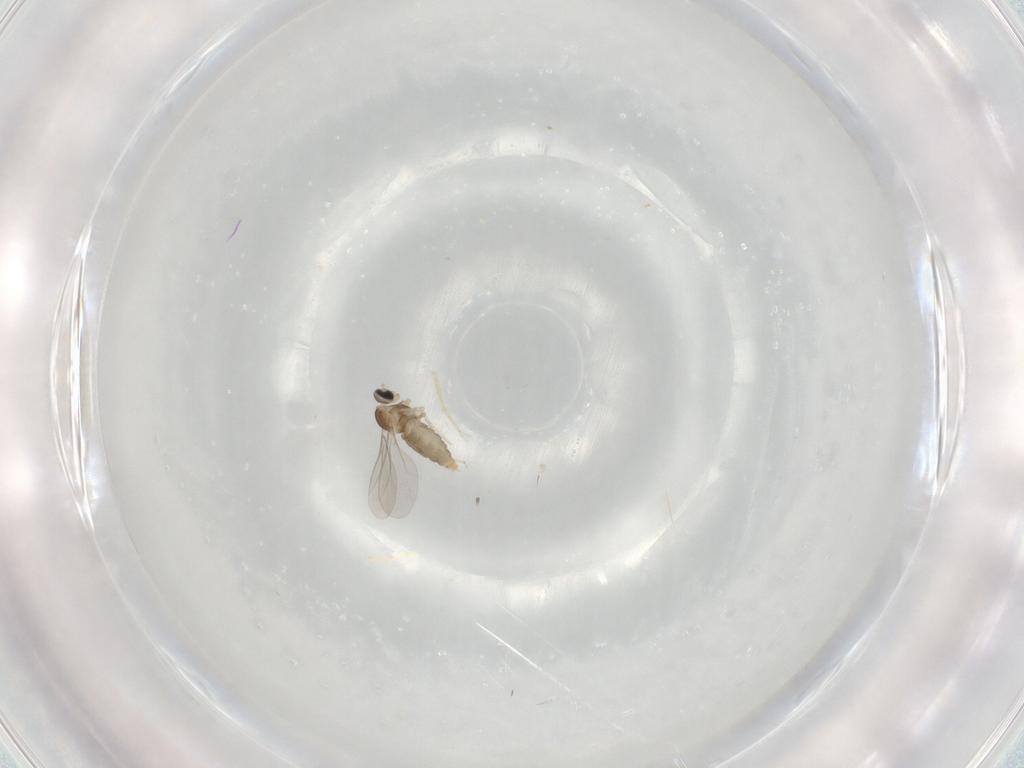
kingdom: Animalia
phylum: Arthropoda
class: Insecta
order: Diptera
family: Cecidomyiidae
